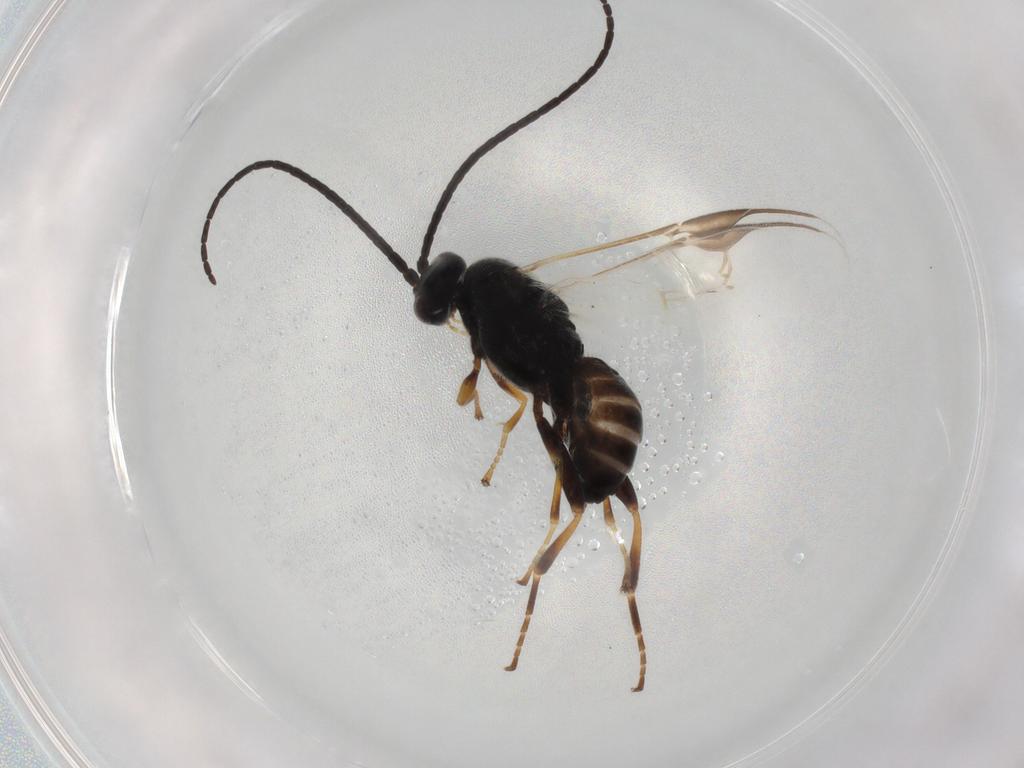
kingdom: Animalia
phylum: Arthropoda
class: Insecta
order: Hymenoptera
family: Braconidae
